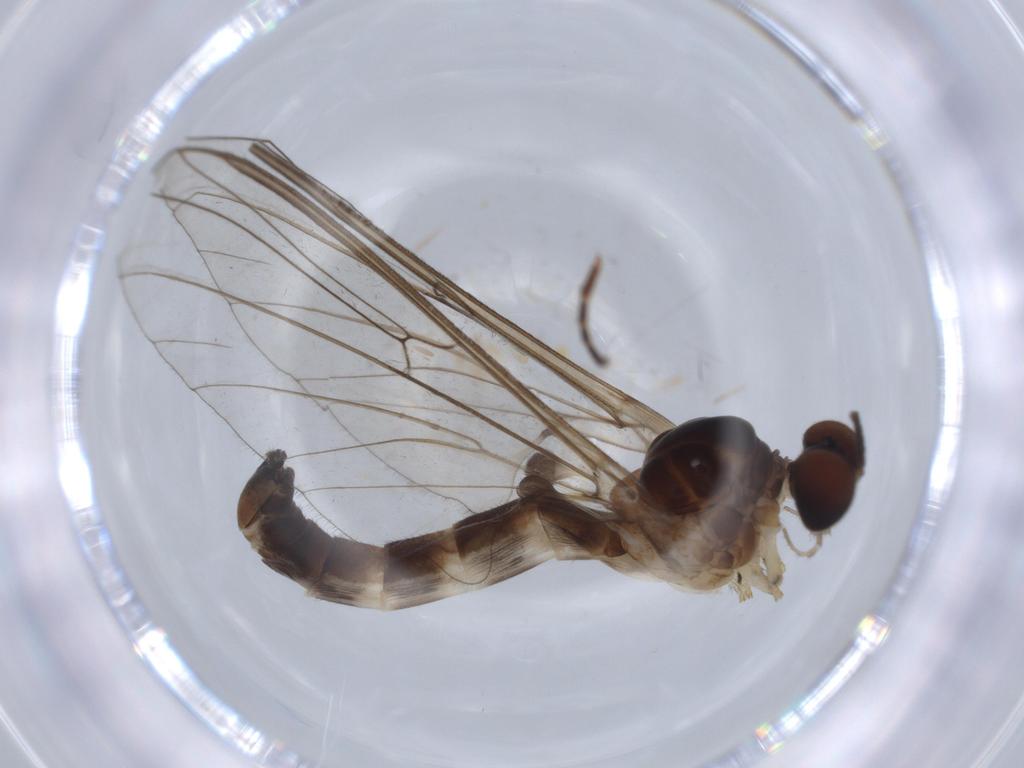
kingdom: Animalia
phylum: Arthropoda
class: Insecta
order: Diptera
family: Blephariceridae
